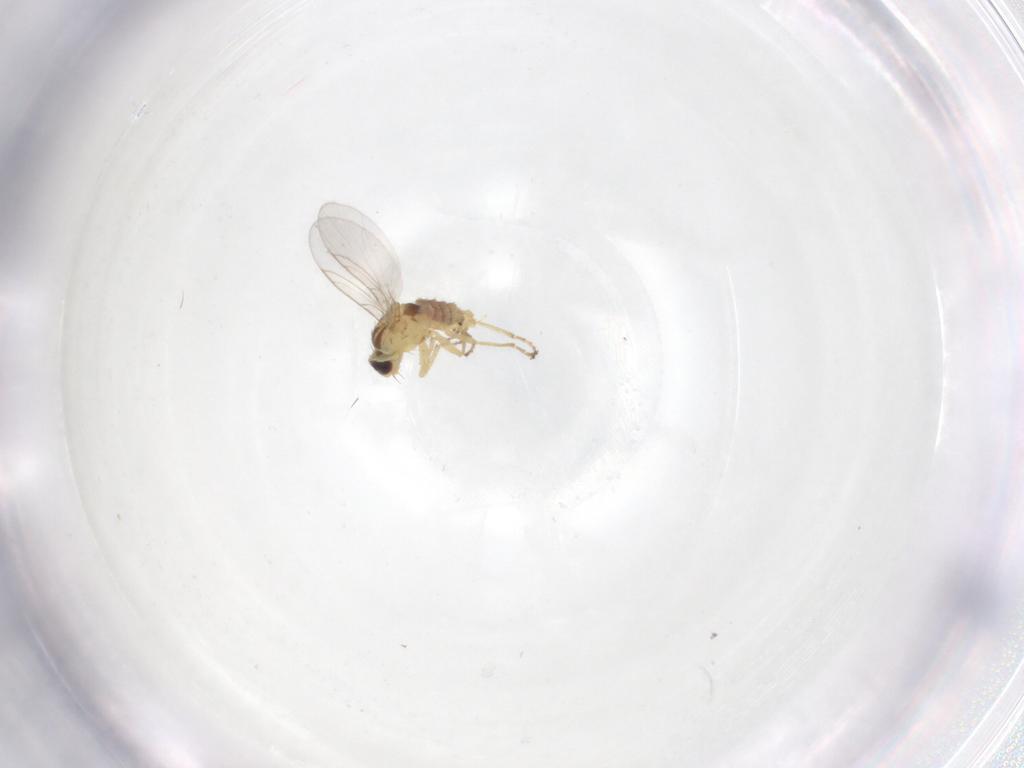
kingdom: Animalia
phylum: Arthropoda
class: Insecta
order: Diptera
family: Agromyzidae
